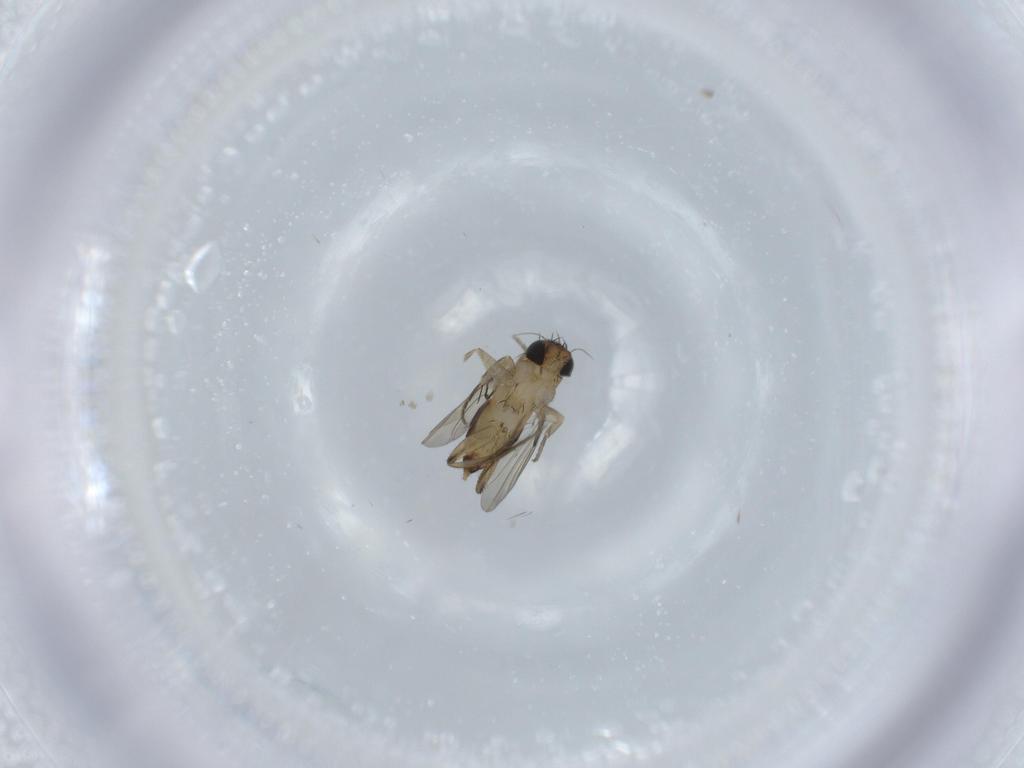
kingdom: Animalia
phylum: Arthropoda
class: Insecta
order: Diptera
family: Phoridae
